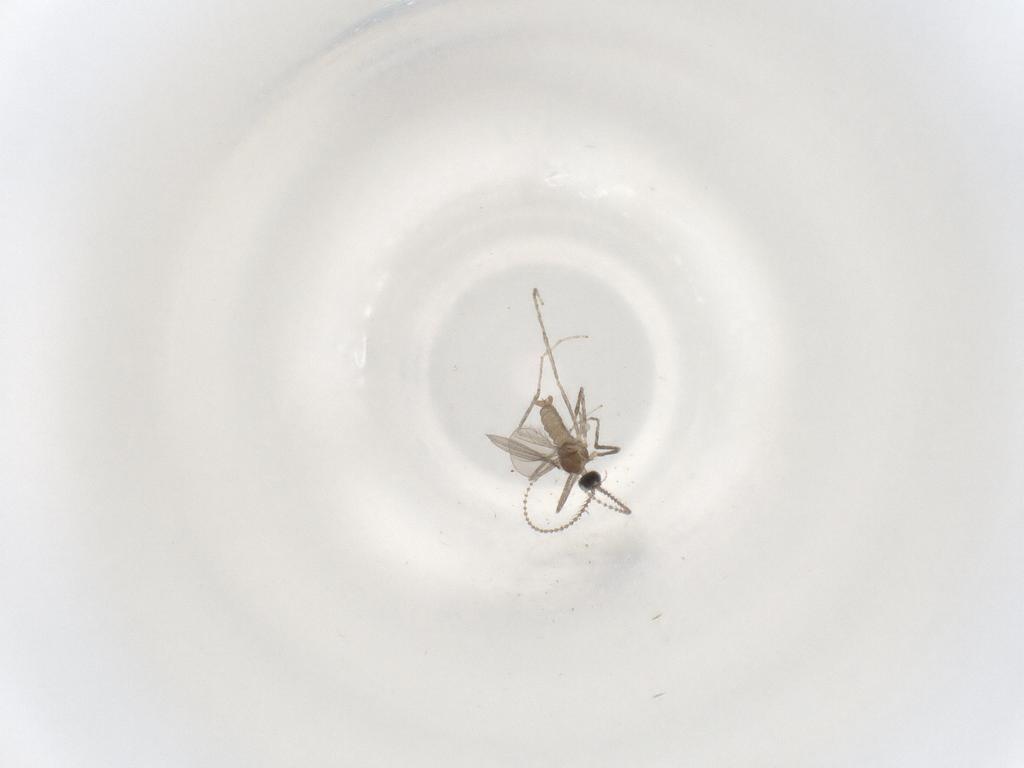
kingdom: Animalia
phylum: Arthropoda
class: Insecta
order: Diptera
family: Cecidomyiidae
